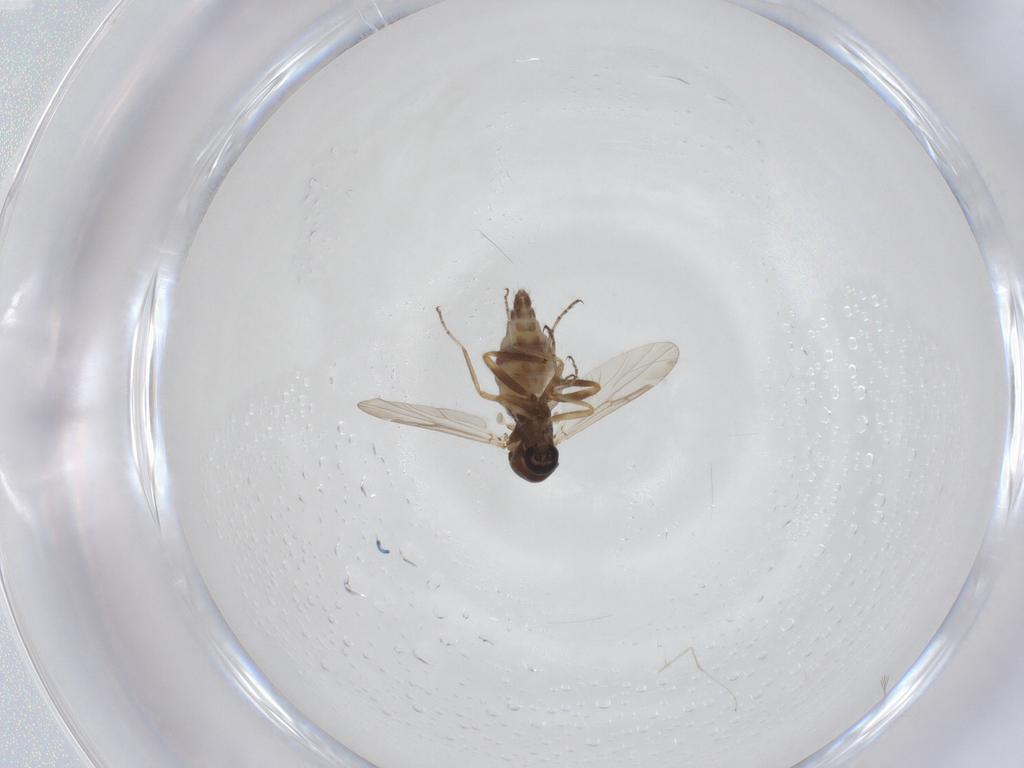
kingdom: Animalia
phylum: Arthropoda
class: Insecta
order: Diptera
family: Ceratopogonidae
